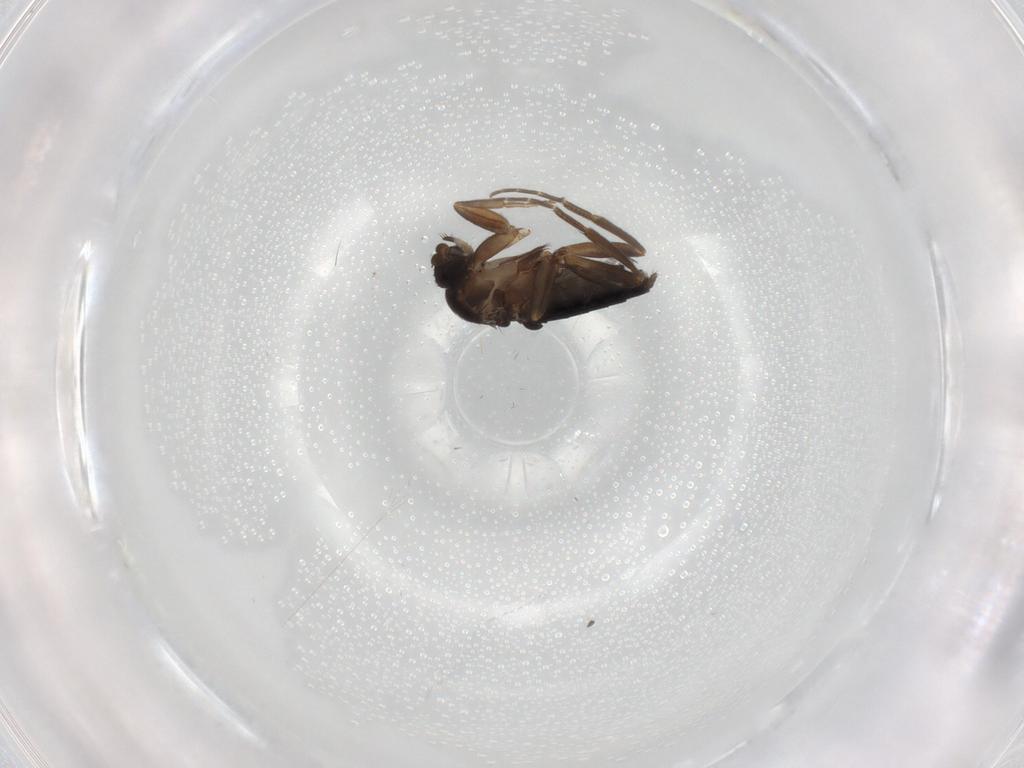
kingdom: Animalia
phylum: Arthropoda
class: Insecta
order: Diptera
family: Phoridae
